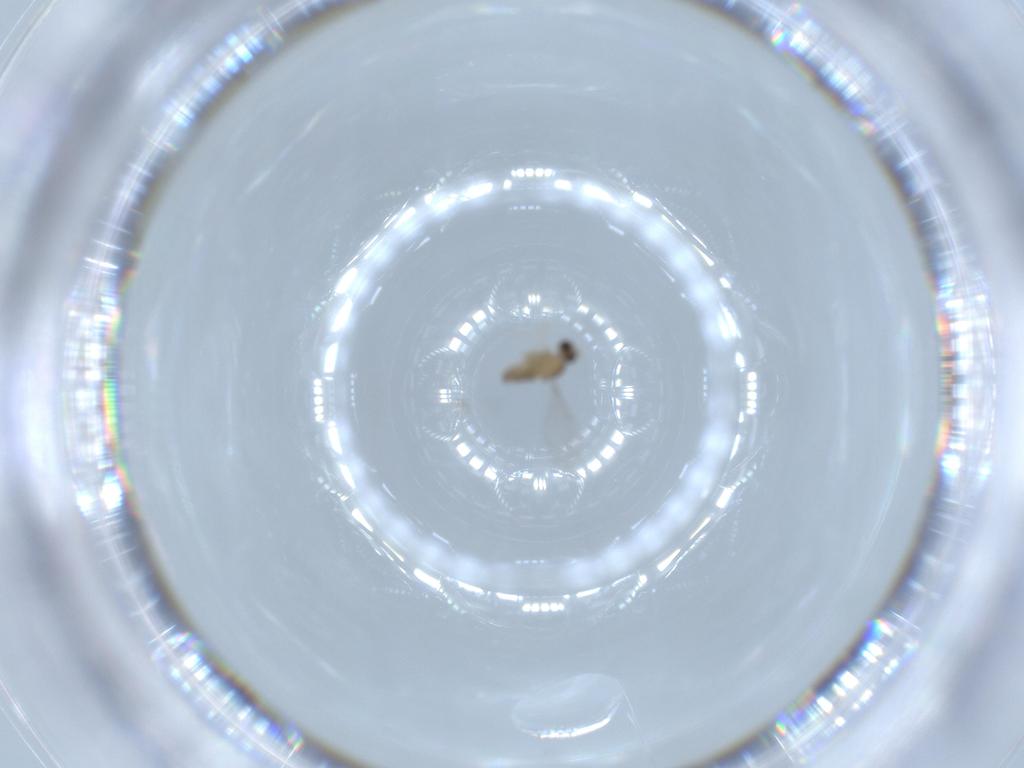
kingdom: Animalia
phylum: Arthropoda
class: Insecta
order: Diptera
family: Cecidomyiidae
